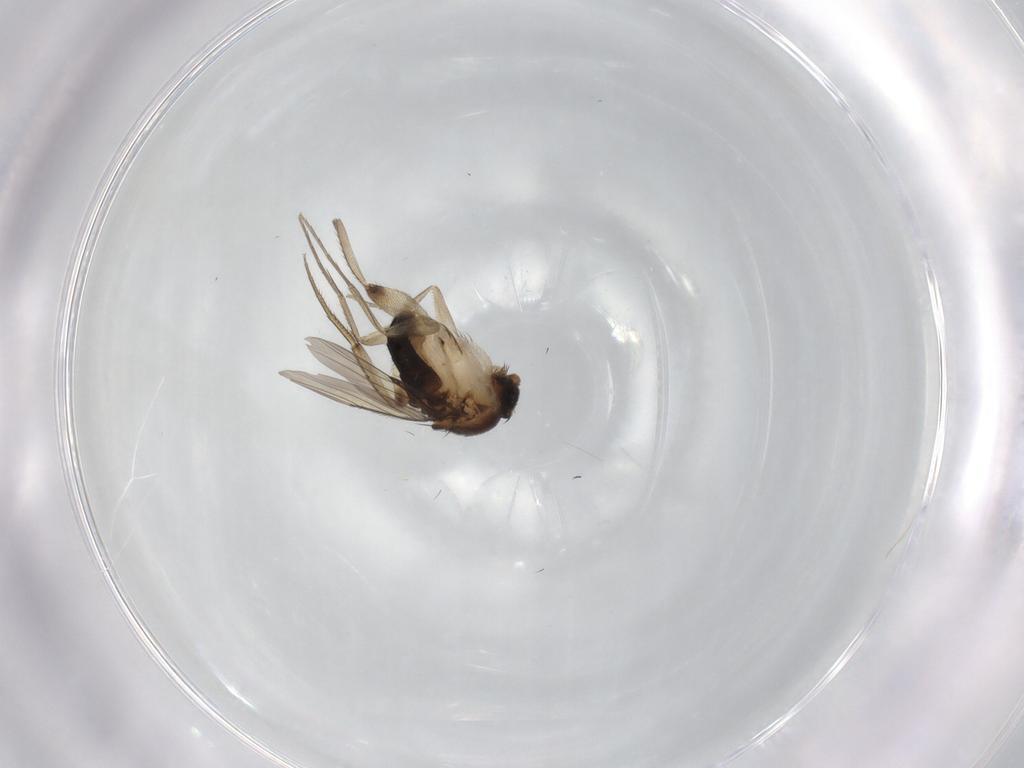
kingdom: Animalia
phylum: Arthropoda
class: Insecta
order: Diptera
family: Phoridae
